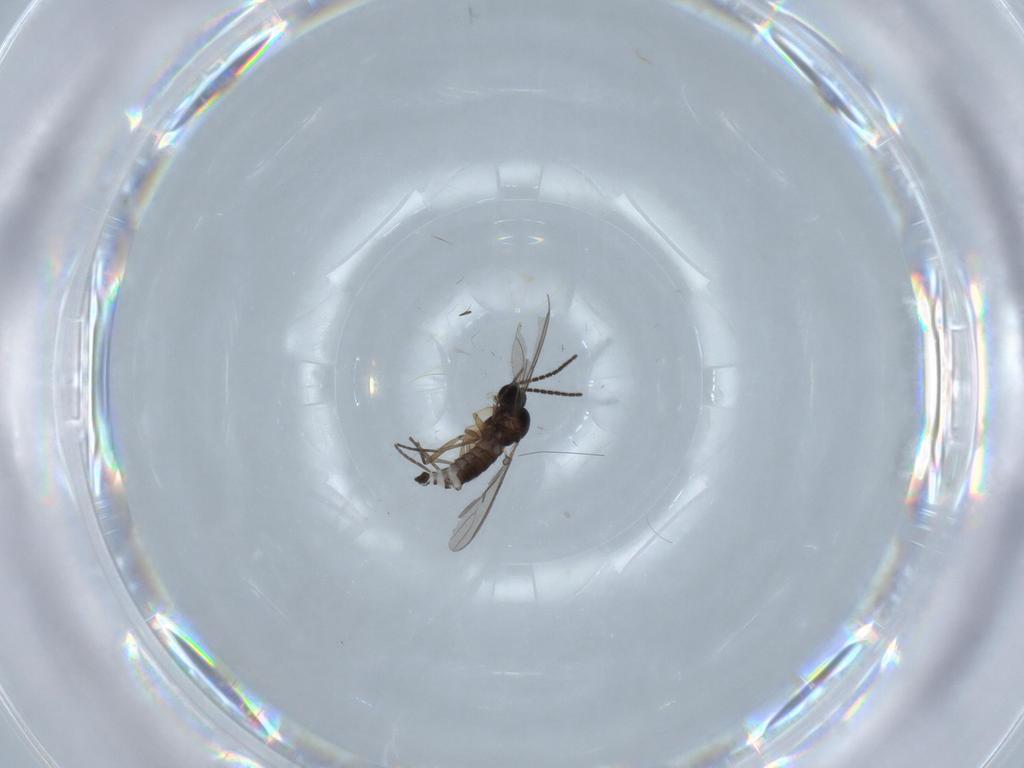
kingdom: Animalia
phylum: Arthropoda
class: Insecta
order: Diptera
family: Sciaridae
